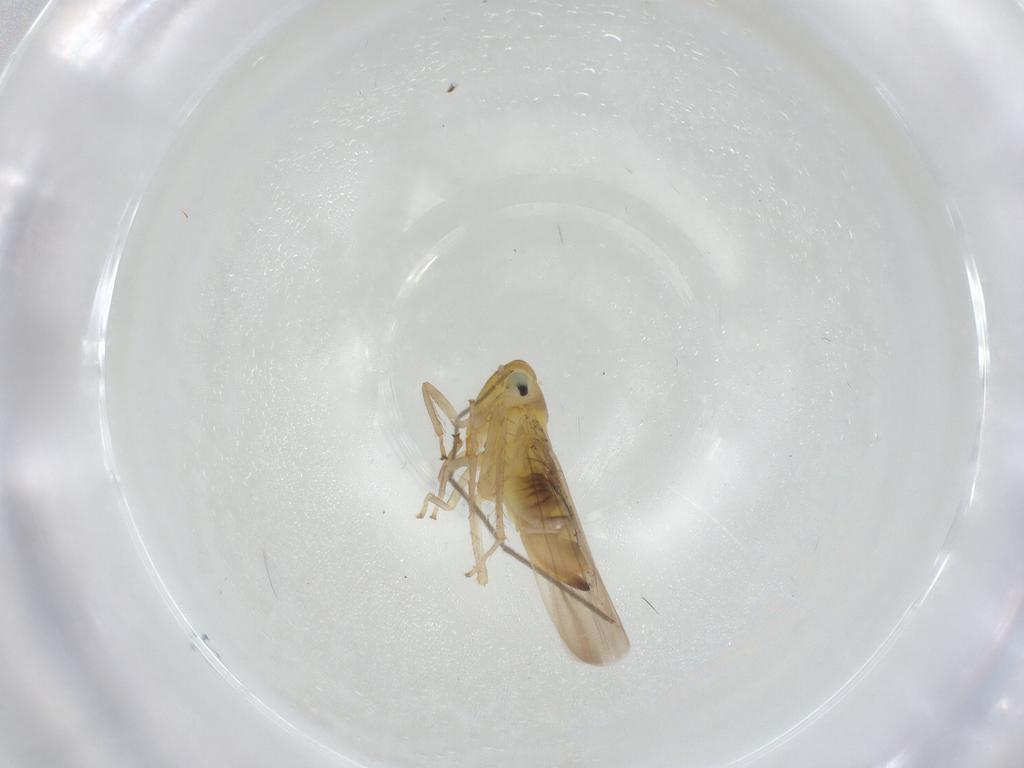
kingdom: Animalia
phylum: Arthropoda
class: Insecta
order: Hemiptera
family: Cicadellidae
